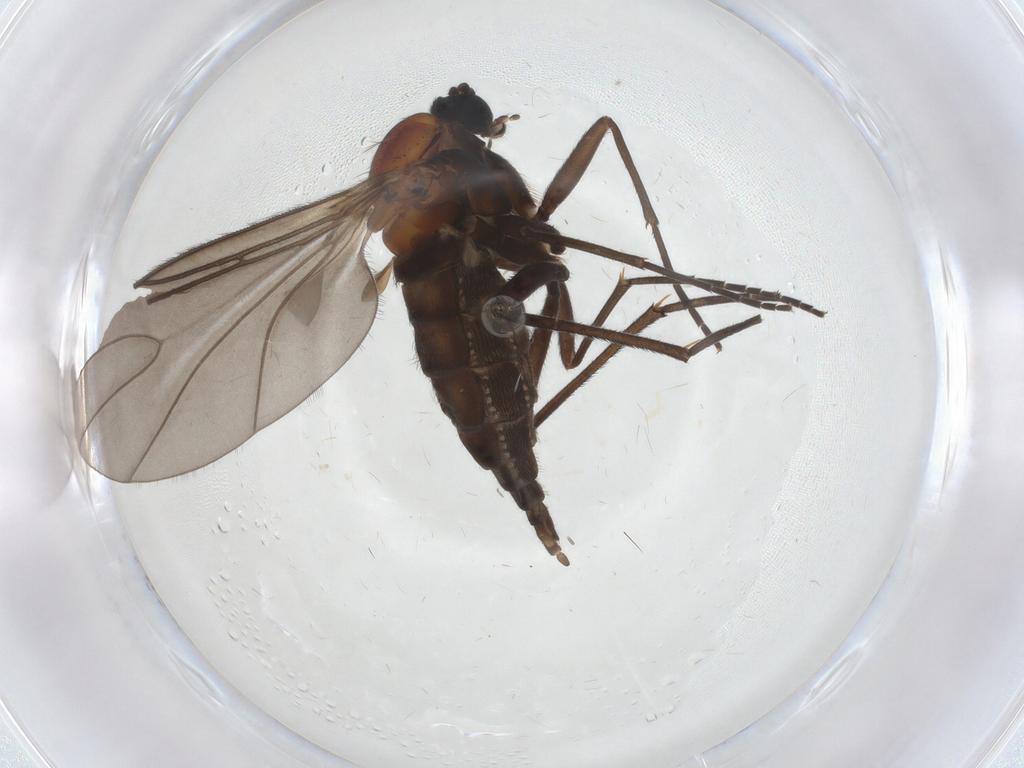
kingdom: Animalia
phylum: Arthropoda
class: Insecta
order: Diptera
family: Sciaridae
